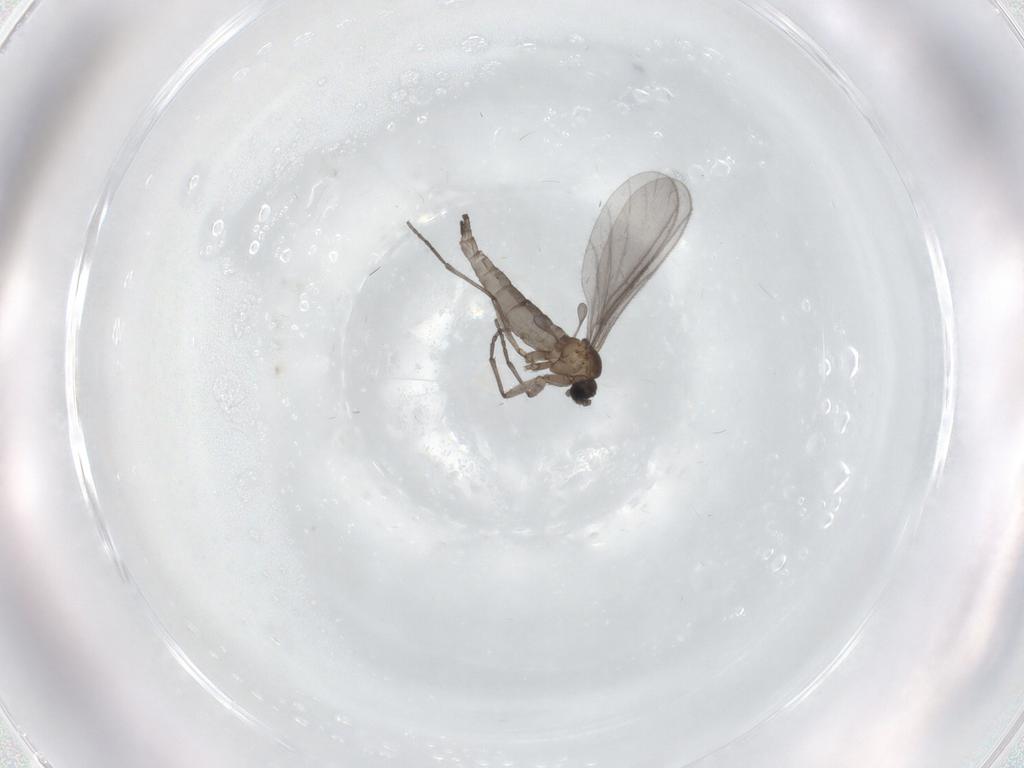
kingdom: Animalia
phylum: Arthropoda
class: Insecta
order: Diptera
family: Sciaridae
